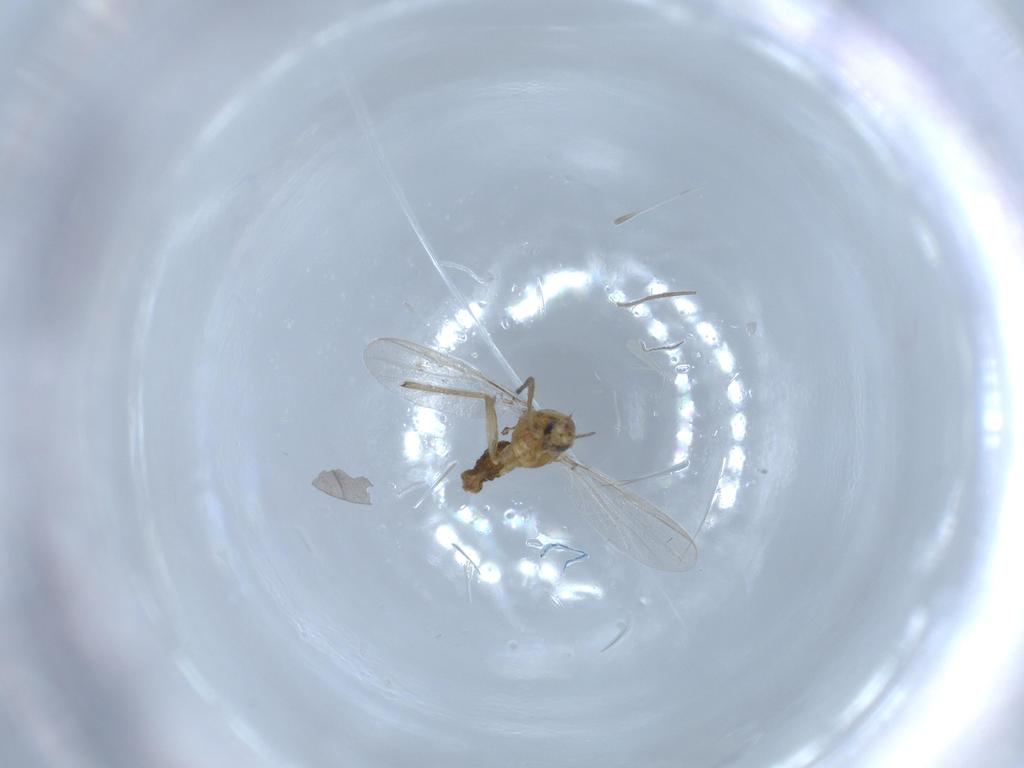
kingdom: Animalia
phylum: Arthropoda
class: Insecta
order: Diptera
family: Chironomidae
